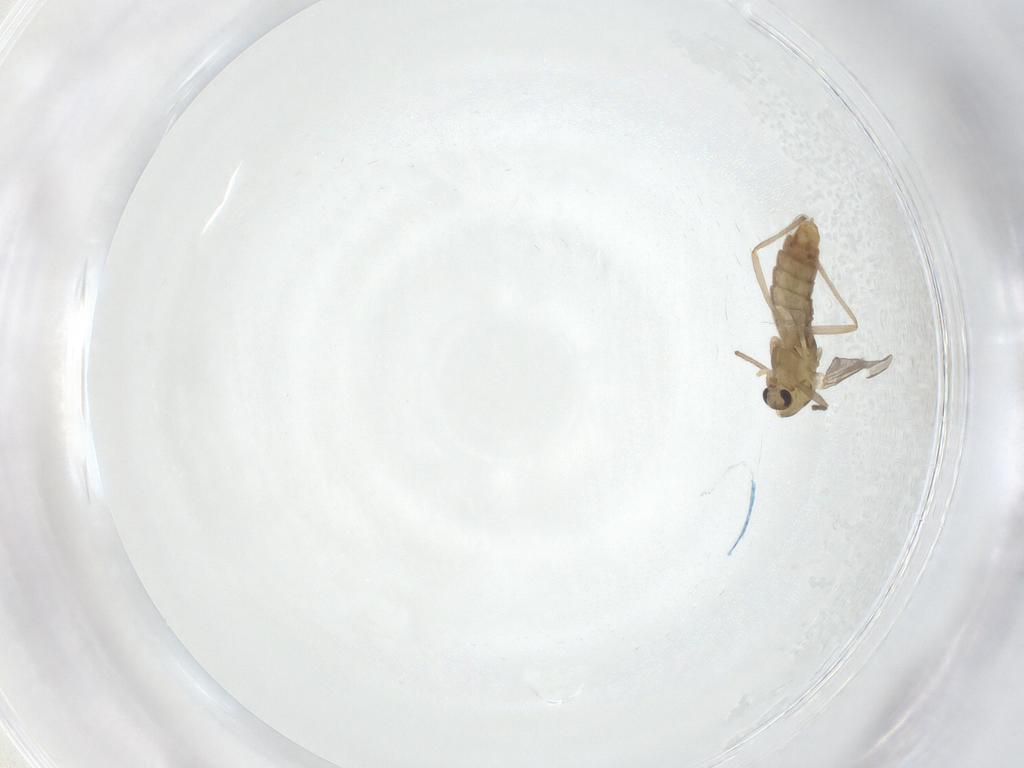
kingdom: Animalia
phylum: Arthropoda
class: Insecta
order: Diptera
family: Chironomidae
